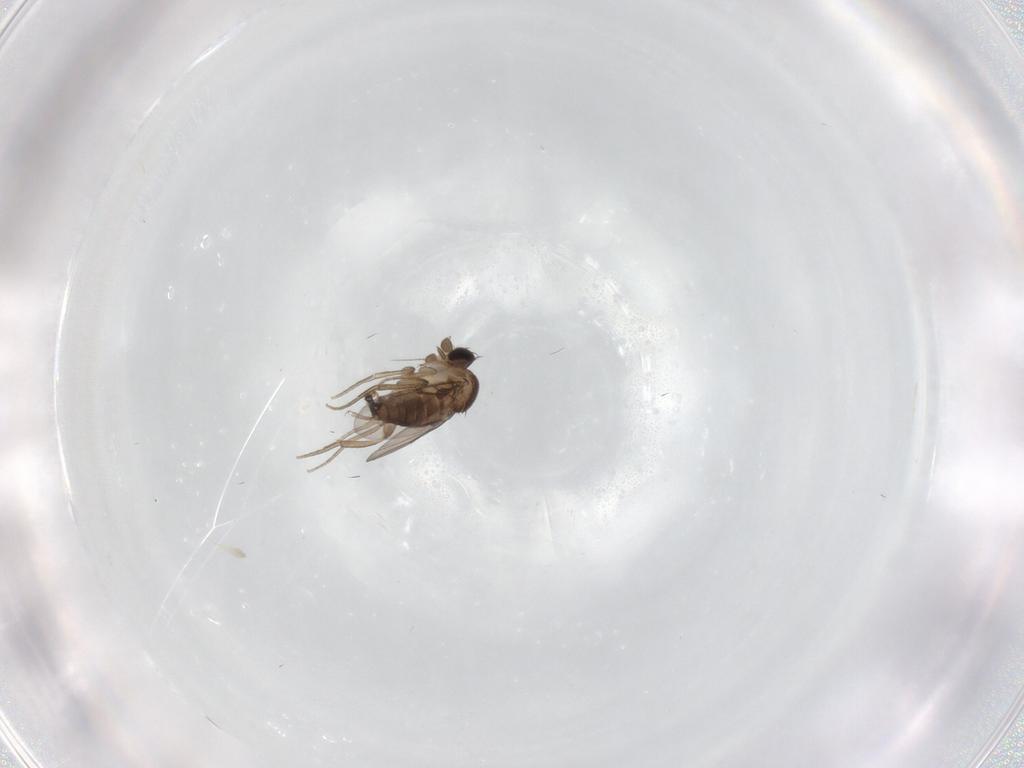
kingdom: Animalia
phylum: Arthropoda
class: Insecta
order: Diptera
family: Phoridae
